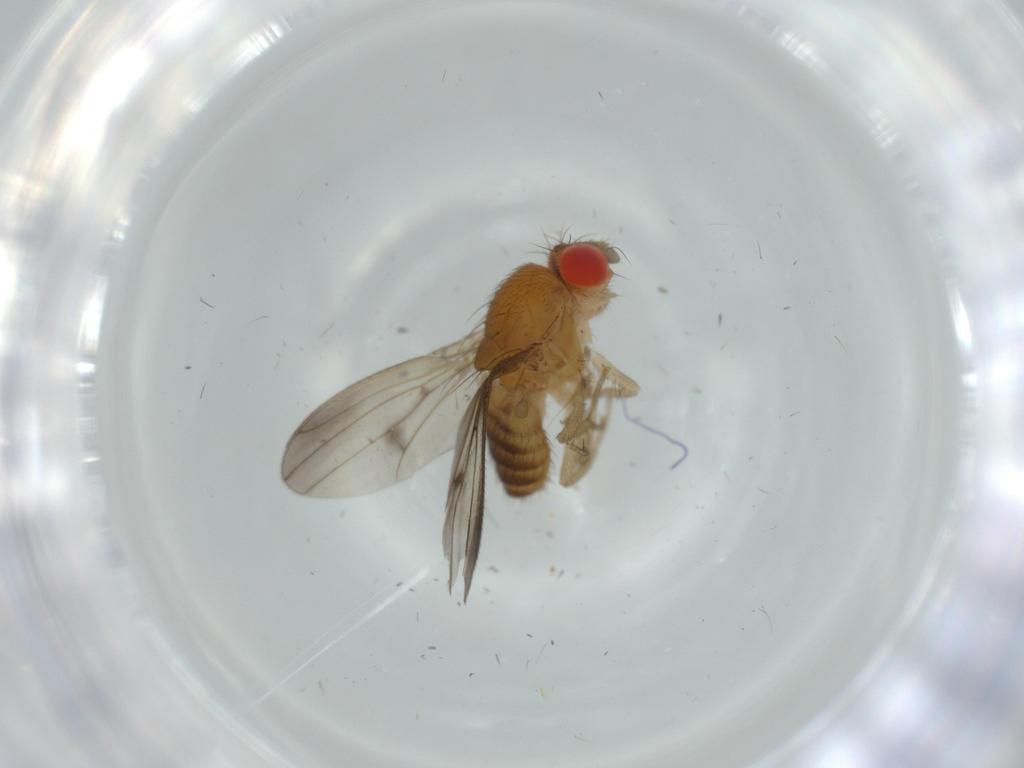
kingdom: Animalia
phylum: Arthropoda
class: Insecta
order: Diptera
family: Drosophilidae
